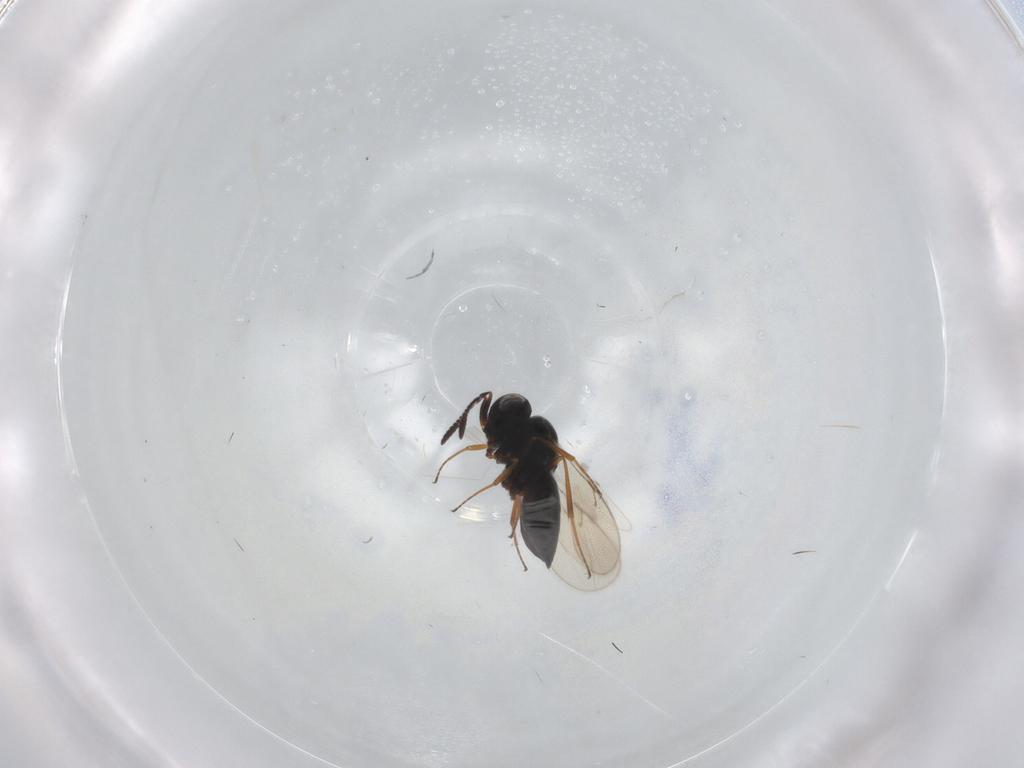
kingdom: Animalia
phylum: Arthropoda
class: Insecta
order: Hymenoptera
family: Scelionidae
